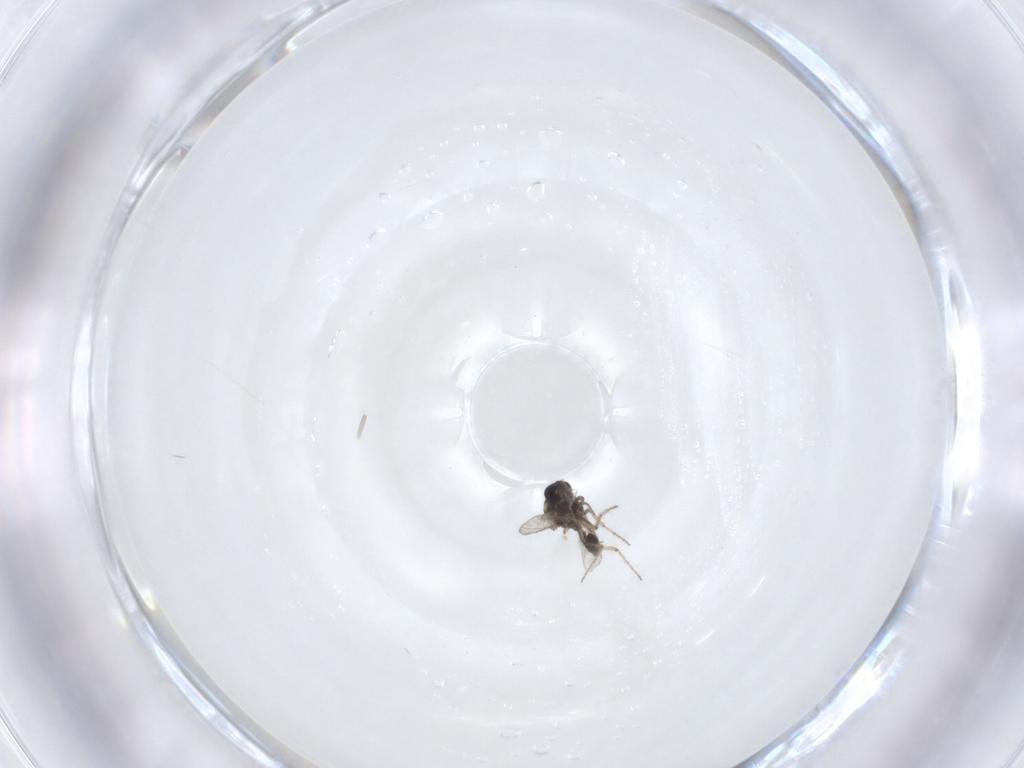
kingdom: Animalia
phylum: Arthropoda
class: Insecta
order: Diptera
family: Ceratopogonidae
